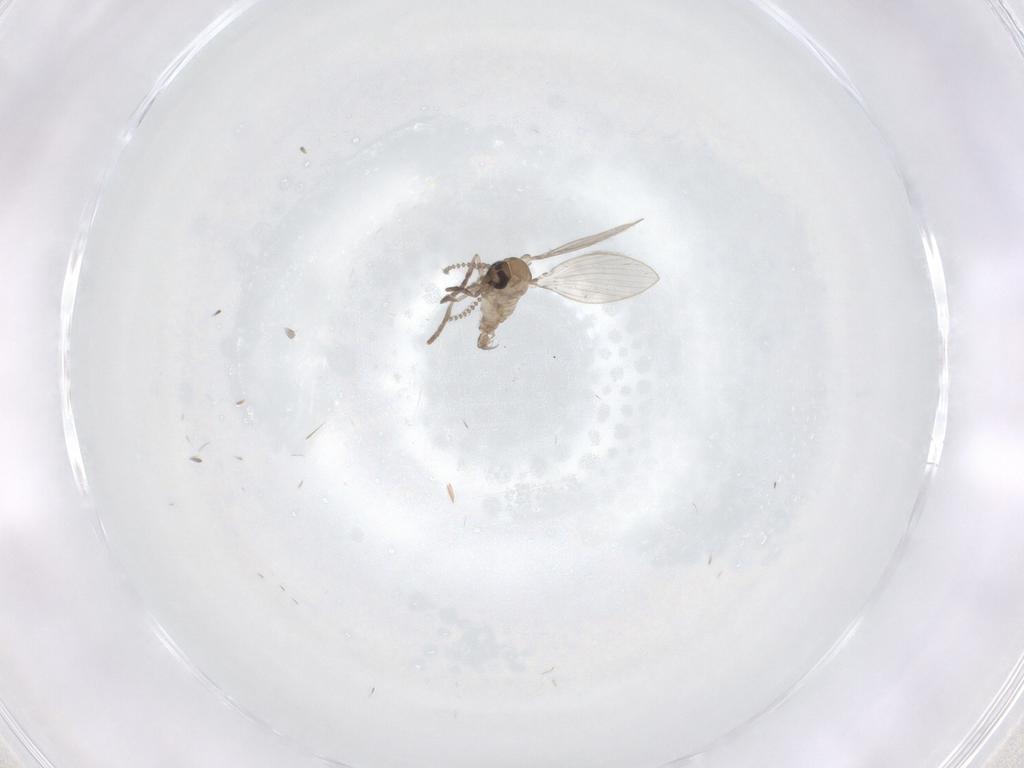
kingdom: Animalia
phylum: Arthropoda
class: Insecta
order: Diptera
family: Psychodidae
